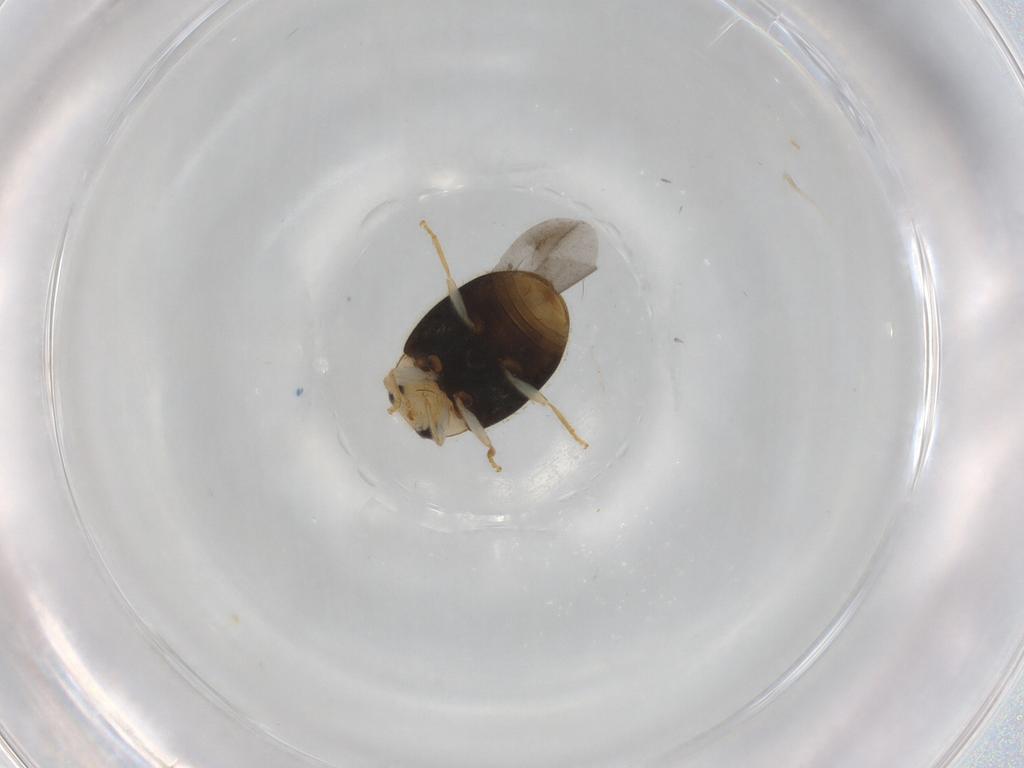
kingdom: Animalia
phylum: Arthropoda
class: Insecta
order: Coleoptera
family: Coccinellidae
